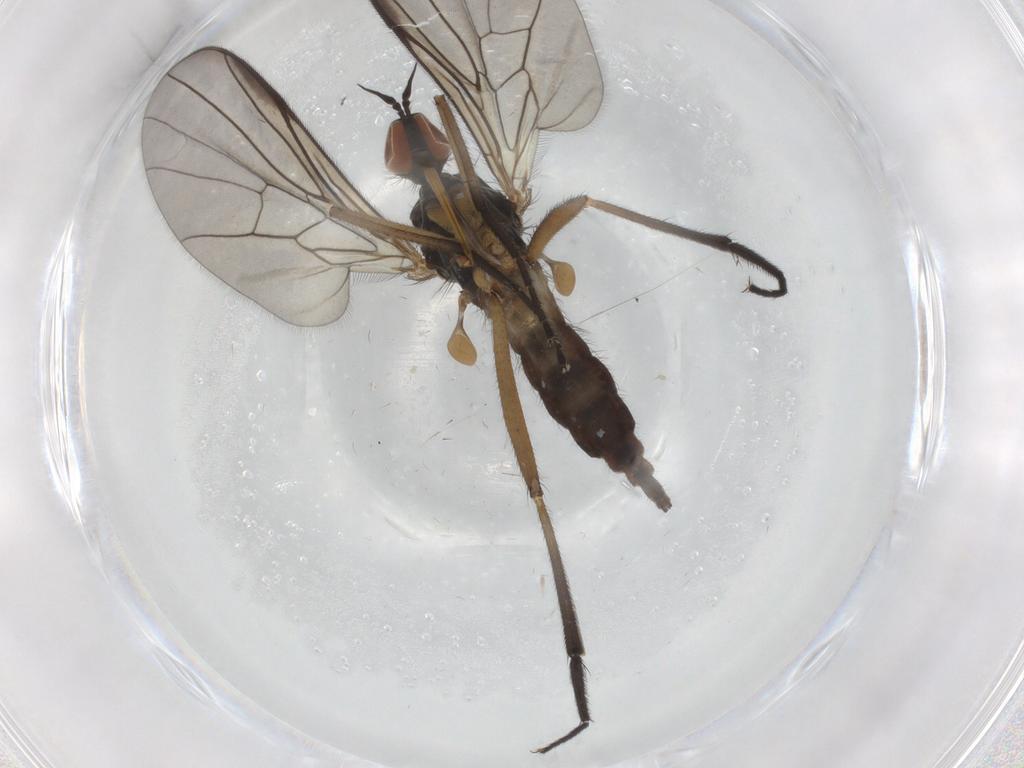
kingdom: Animalia
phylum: Arthropoda
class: Insecta
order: Diptera
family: Empididae
